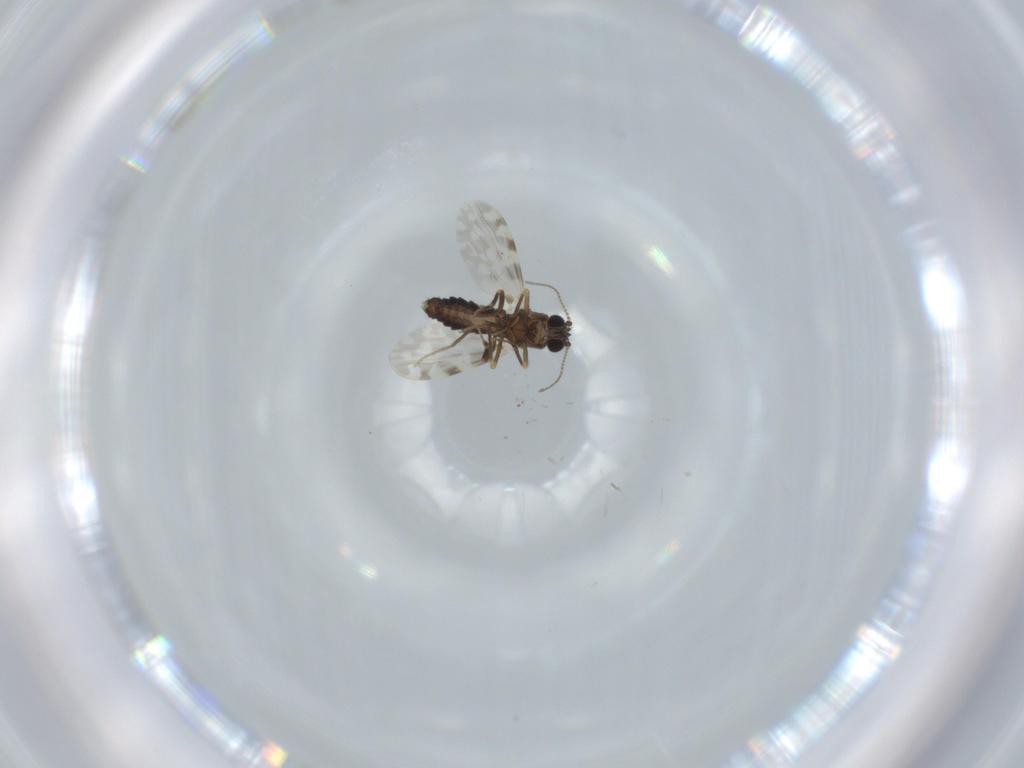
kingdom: Animalia
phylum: Arthropoda
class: Insecta
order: Diptera
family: Ceratopogonidae
